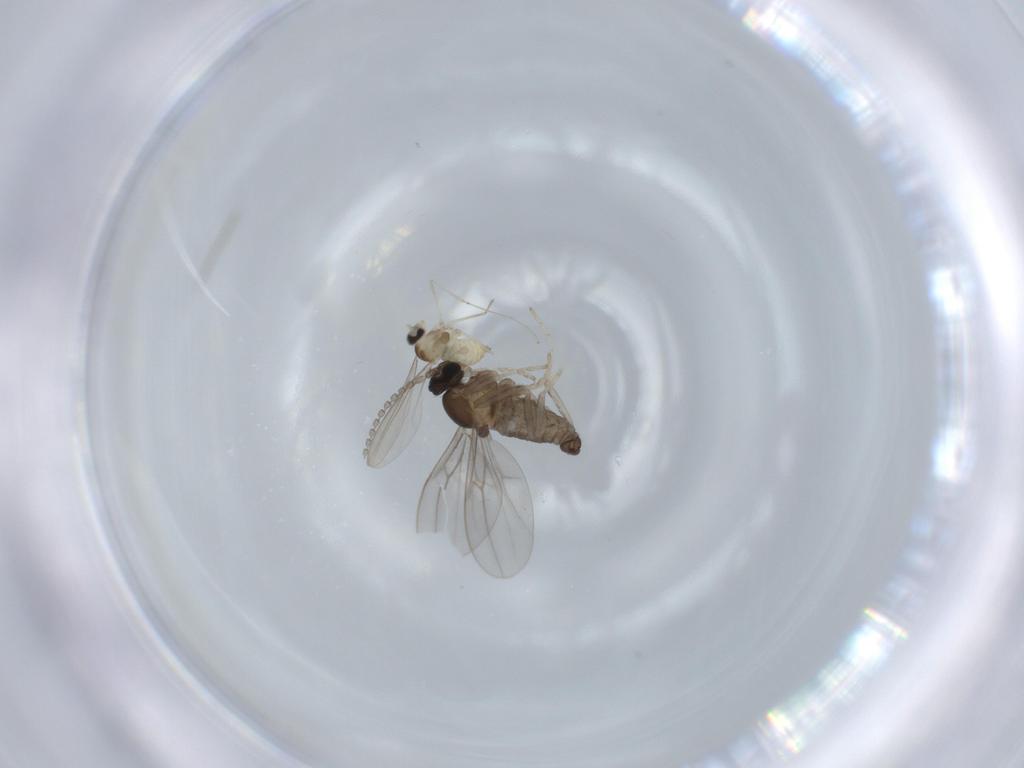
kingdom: Animalia
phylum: Arthropoda
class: Insecta
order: Diptera
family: Cecidomyiidae
